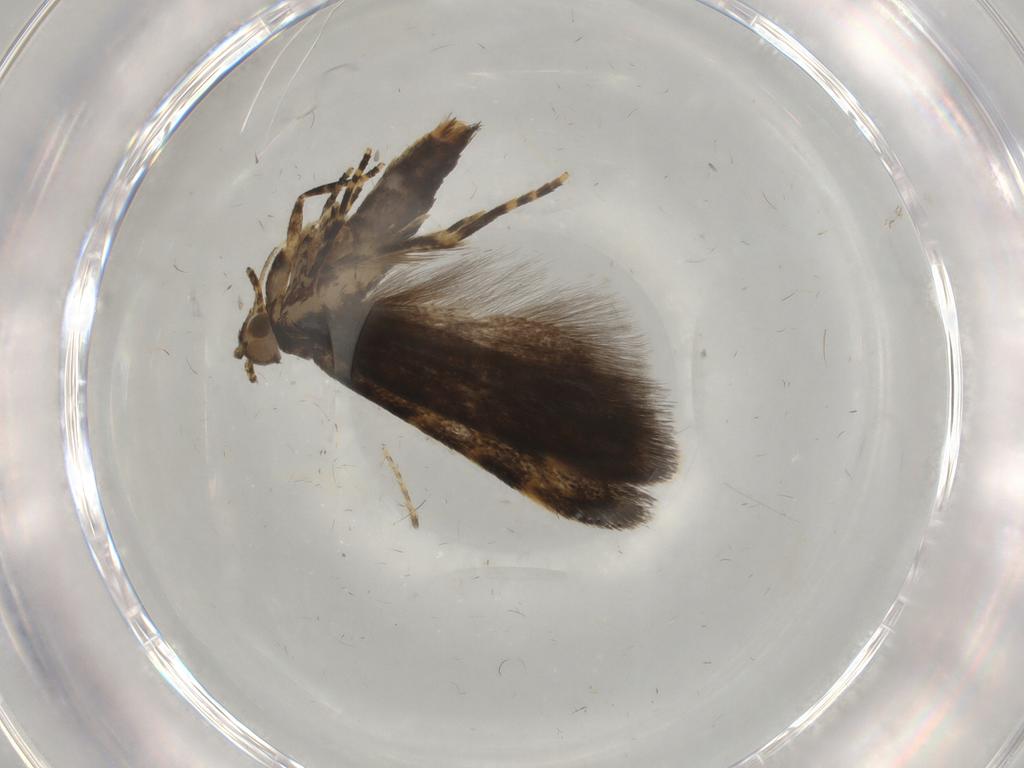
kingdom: Animalia
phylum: Arthropoda
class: Insecta
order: Lepidoptera
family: Oecophoridae
